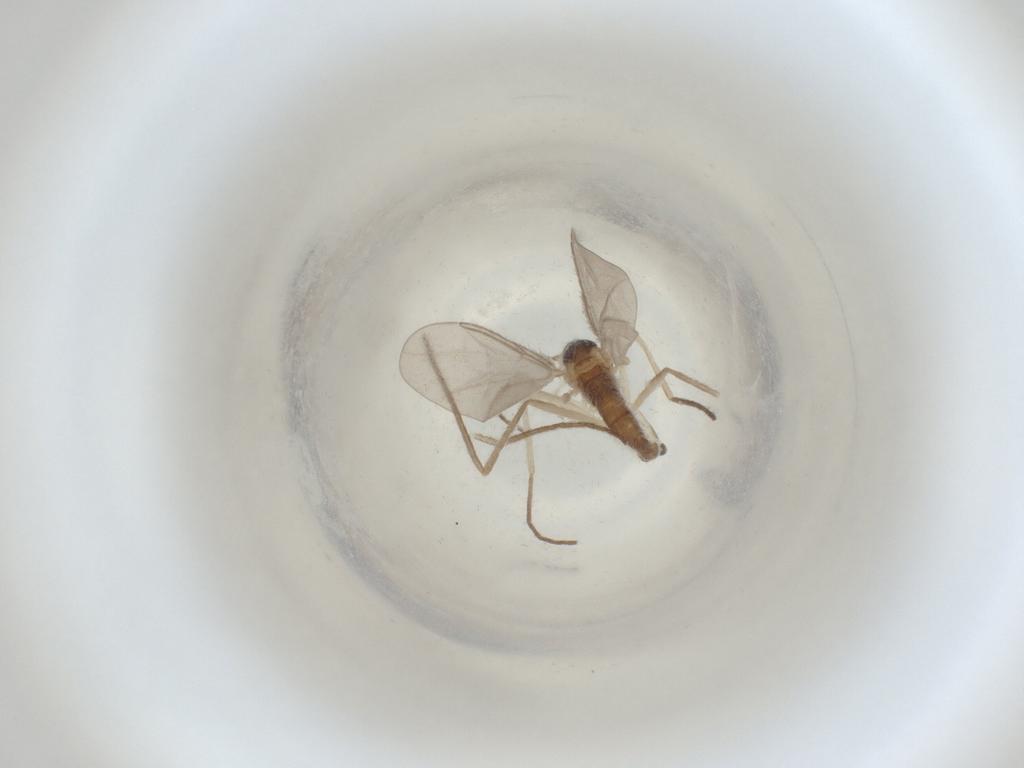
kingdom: Animalia
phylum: Arthropoda
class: Insecta
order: Diptera
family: Cecidomyiidae
